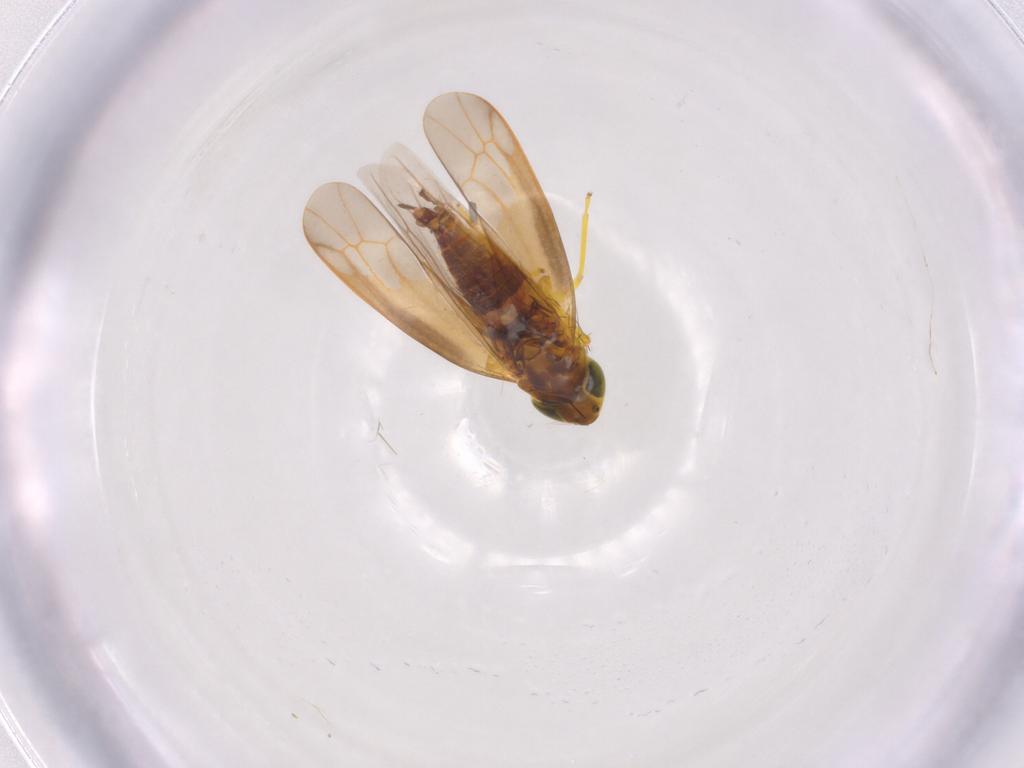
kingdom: Animalia
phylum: Arthropoda
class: Insecta
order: Hemiptera
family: Cicadellidae
